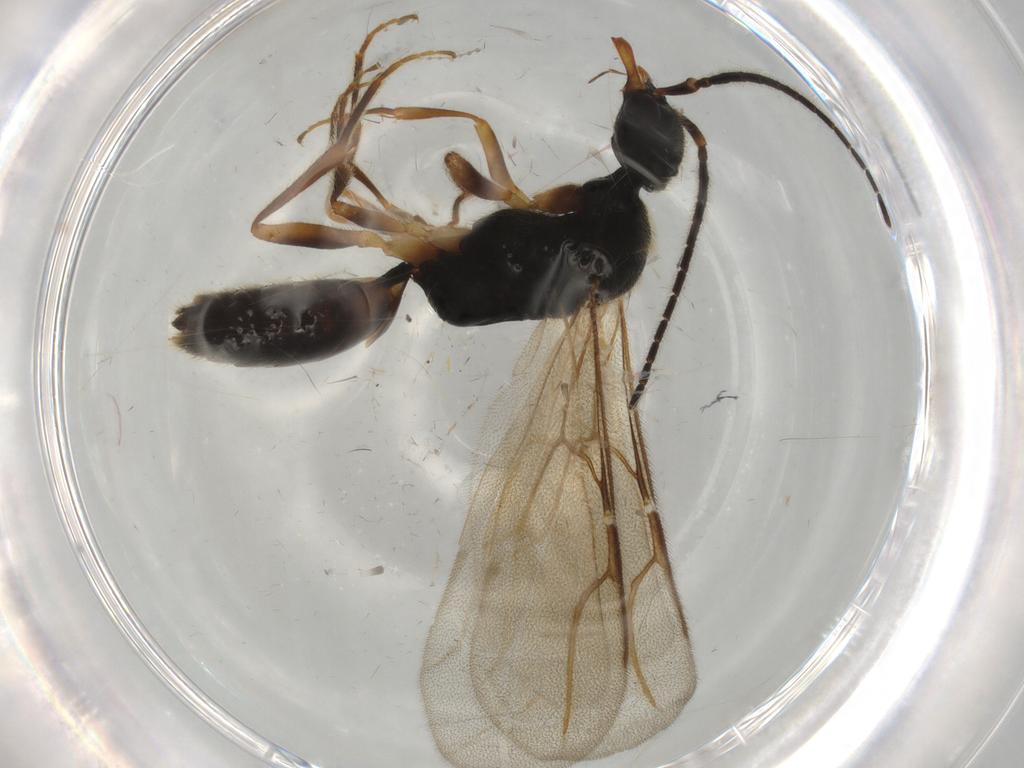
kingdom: Animalia
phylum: Arthropoda
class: Insecta
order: Hymenoptera
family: Bethylidae
